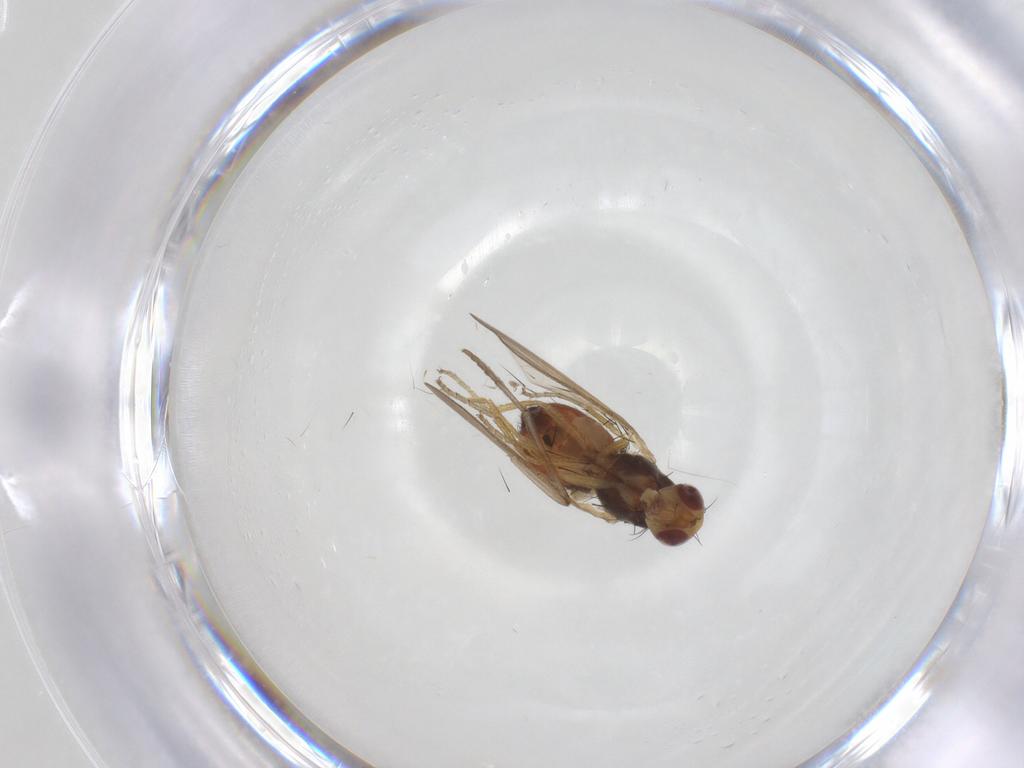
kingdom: Animalia
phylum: Arthropoda
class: Insecta
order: Diptera
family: Heleomyzidae
